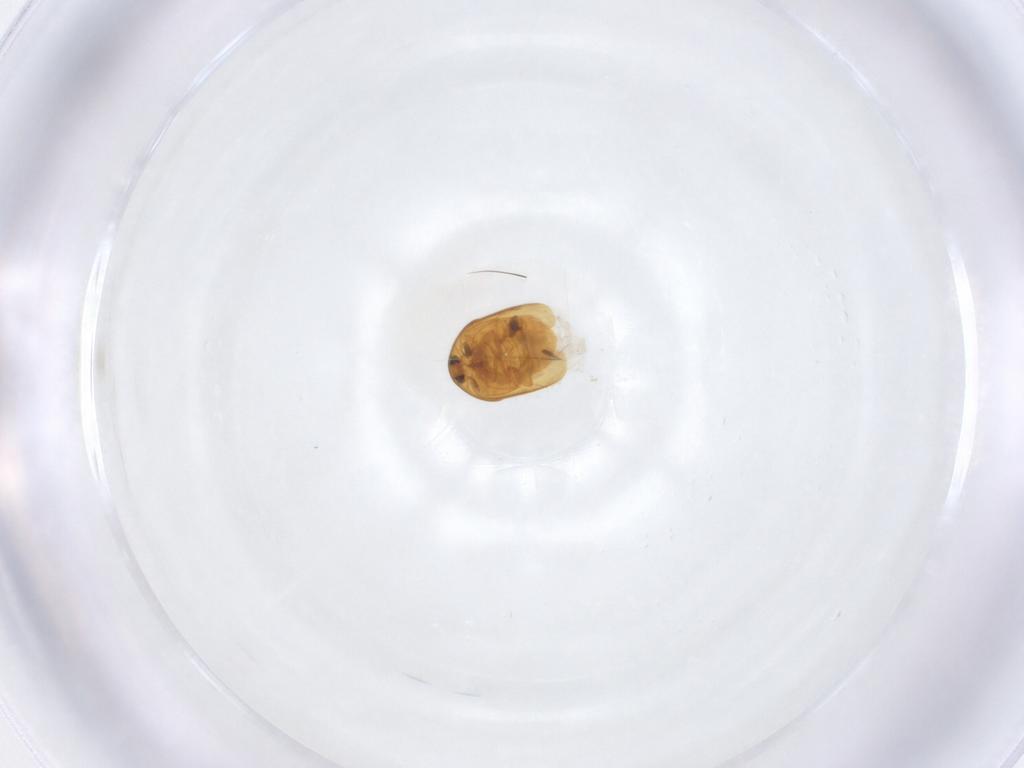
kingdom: Animalia
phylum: Arthropoda
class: Insecta
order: Coleoptera
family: Corylophidae
